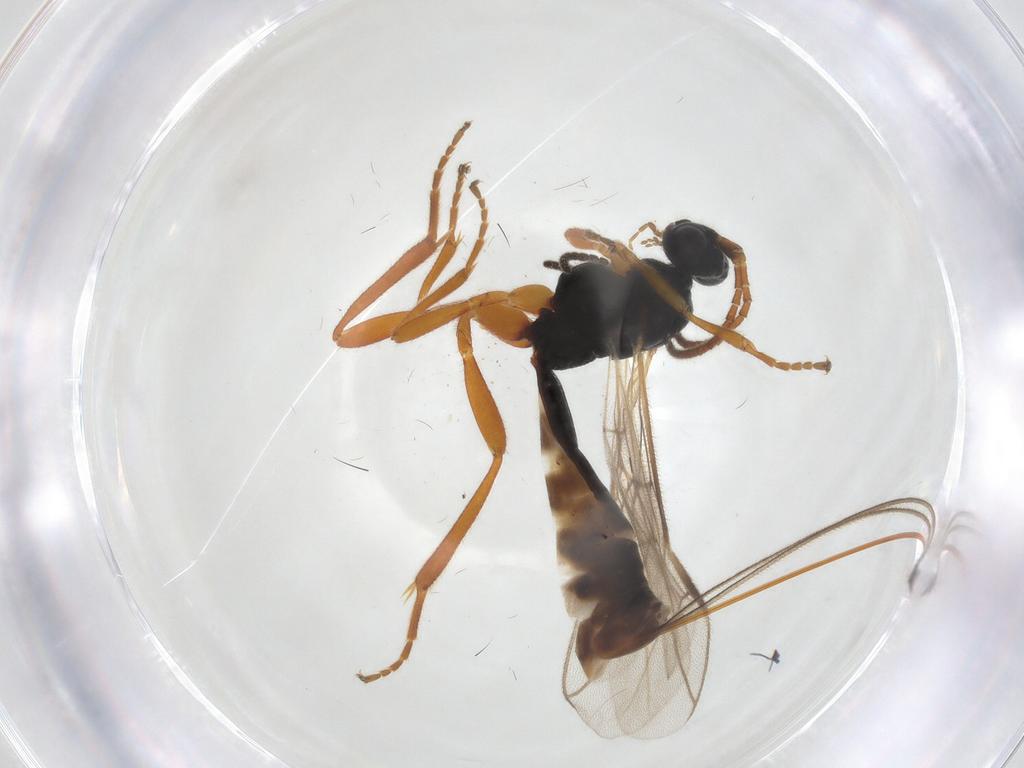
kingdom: Animalia
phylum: Arthropoda
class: Insecta
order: Hymenoptera
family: Braconidae
